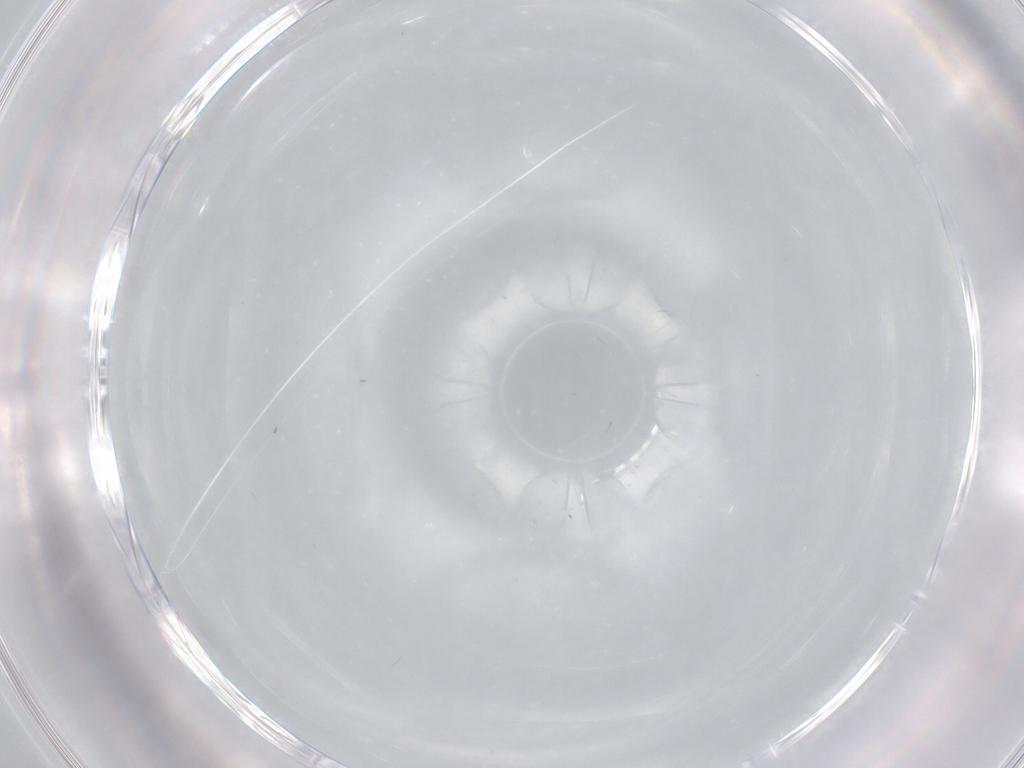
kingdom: Animalia
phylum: Arthropoda
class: Insecta
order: Diptera
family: Cecidomyiidae
